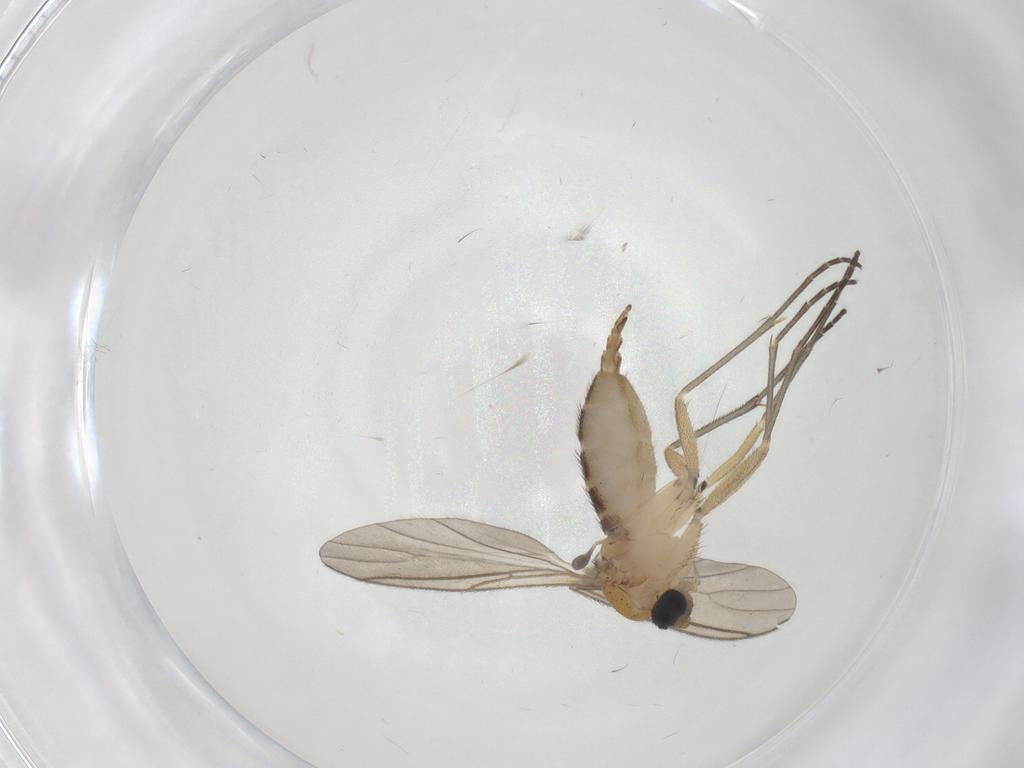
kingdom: Animalia
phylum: Arthropoda
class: Insecta
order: Diptera
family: Sciaridae
